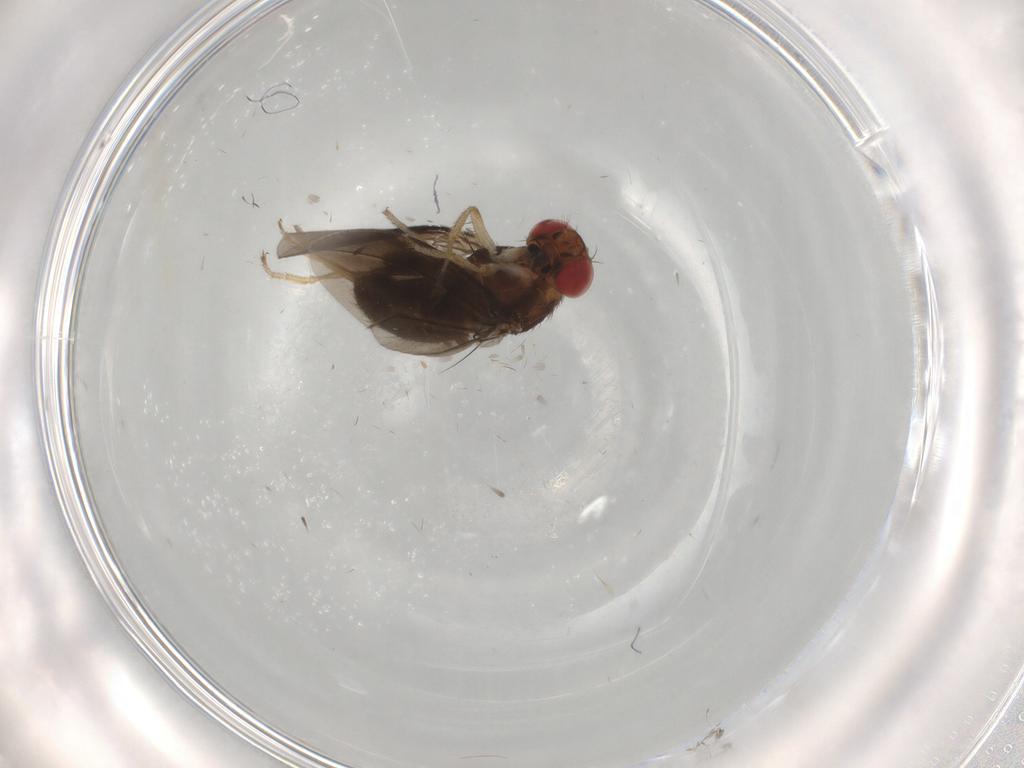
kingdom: Animalia
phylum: Arthropoda
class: Insecta
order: Diptera
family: Drosophilidae
